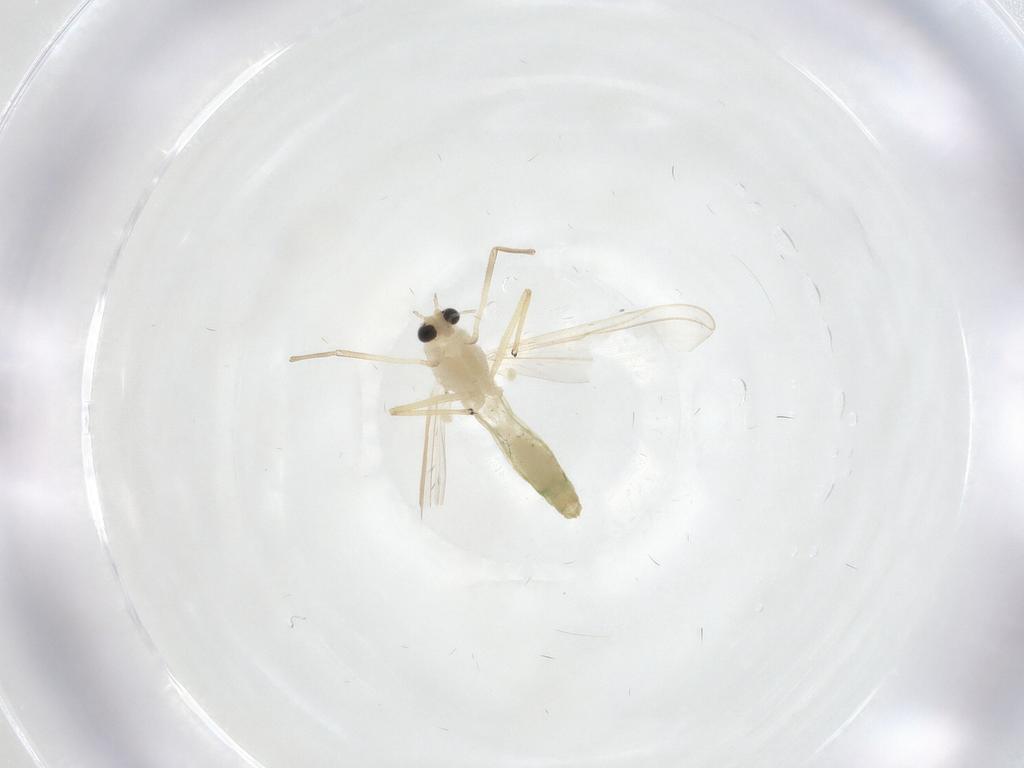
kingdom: Animalia
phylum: Arthropoda
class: Insecta
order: Diptera
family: Chironomidae
